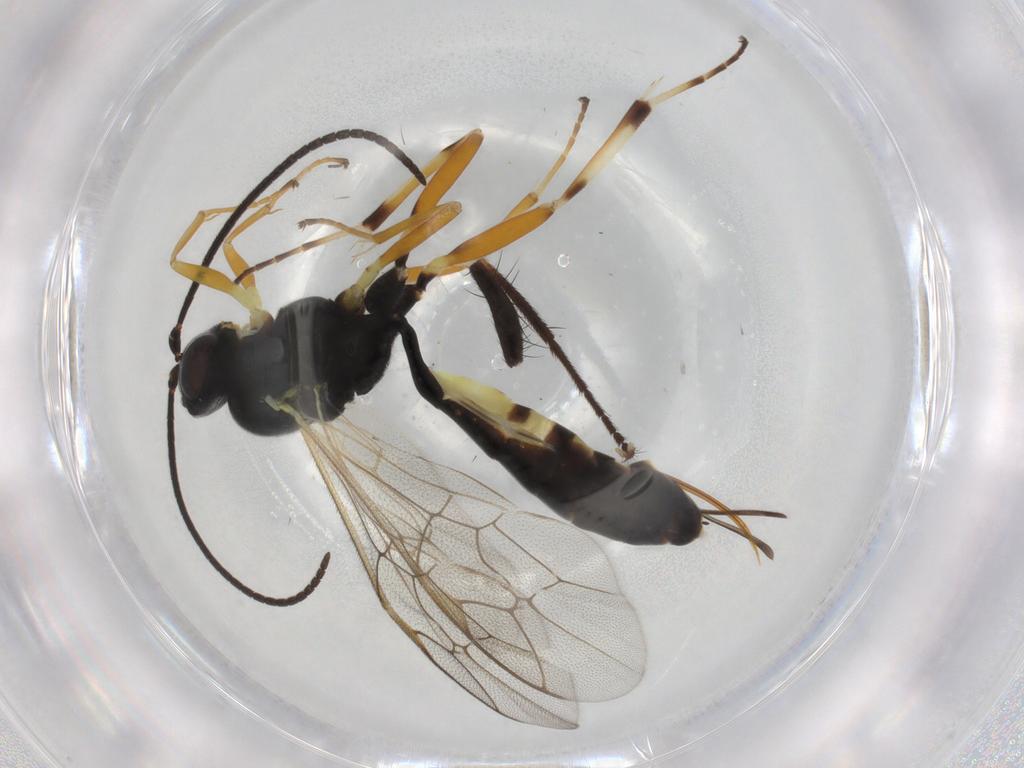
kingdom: Animalia
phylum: Arthropoda
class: Insecta
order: Hymenoptera
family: Ichneumonidae
